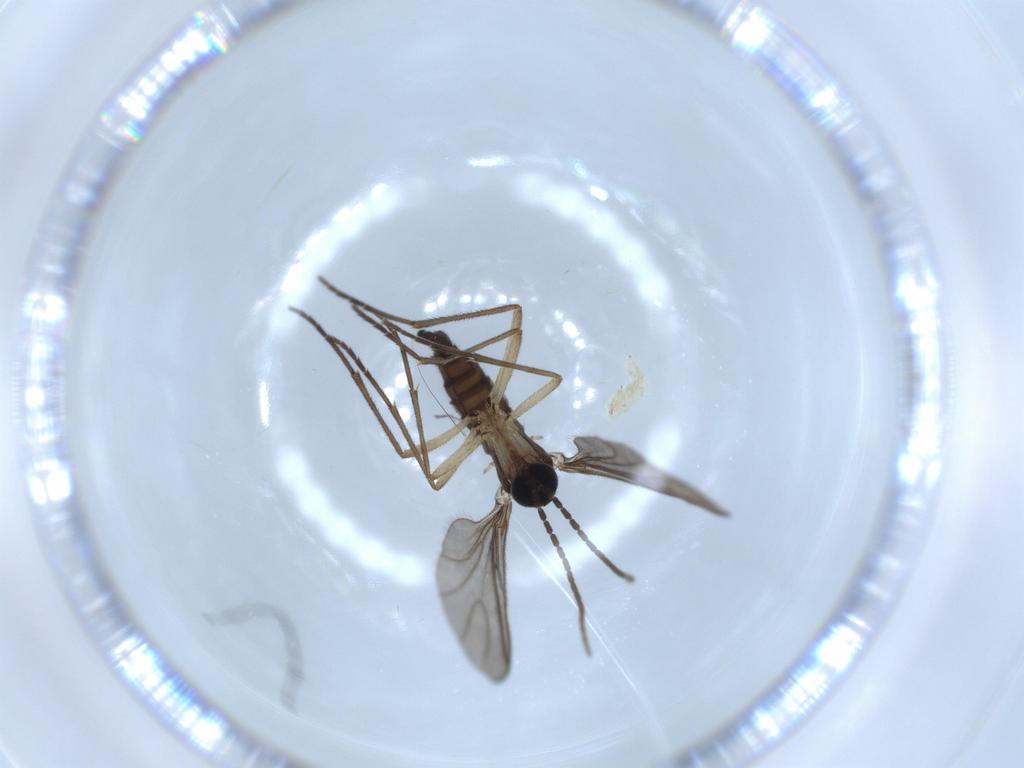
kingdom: Animalia
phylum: Arthropoda
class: Insecta
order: Diptera
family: Sciaridae
